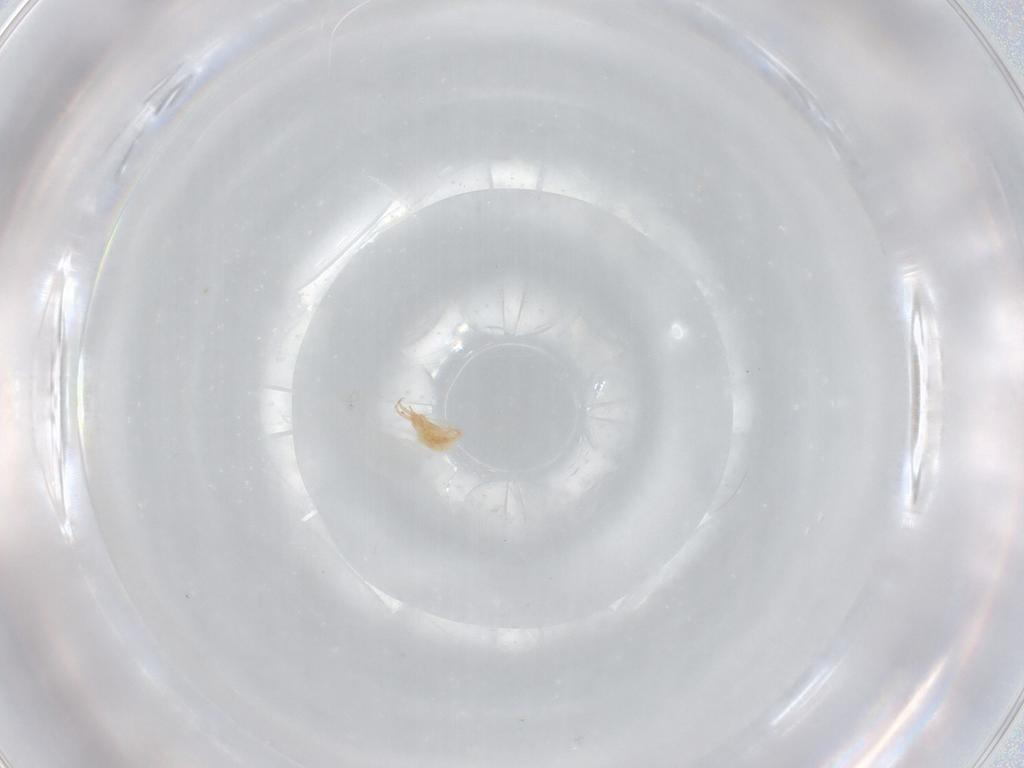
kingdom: Animalia
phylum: Arthropoda
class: Arachnida
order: Trombidiformes
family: Cunaxidae
